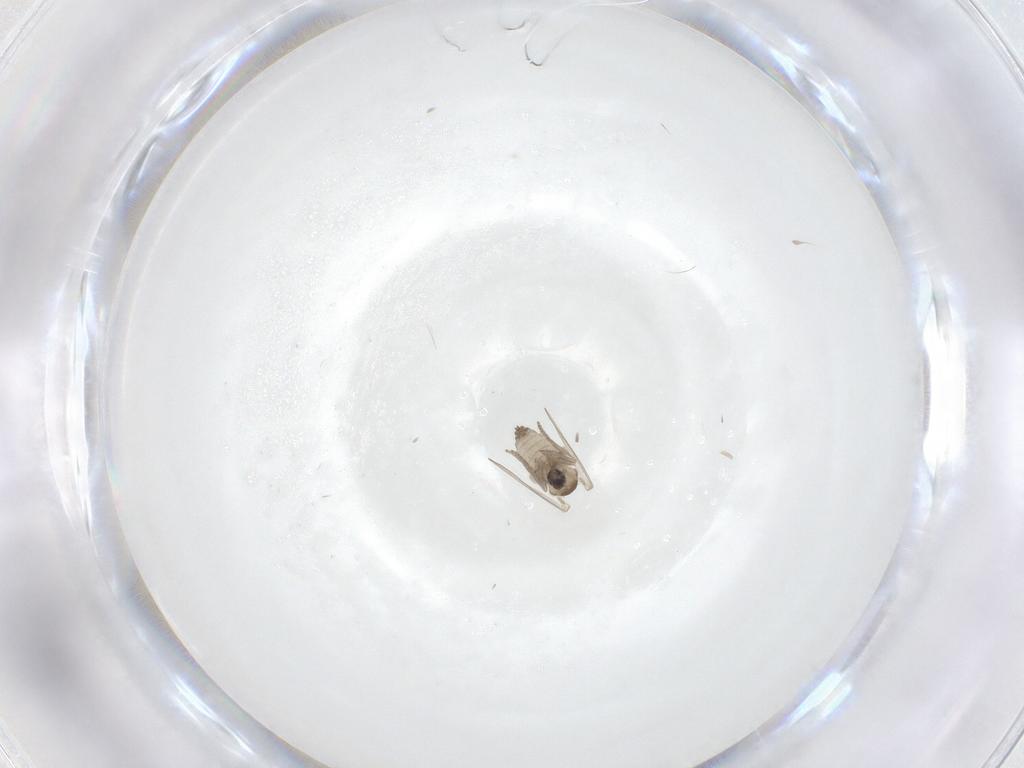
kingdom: Animalia
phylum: Arthropoda
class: Insecta
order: Diptera
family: Psychodidae
